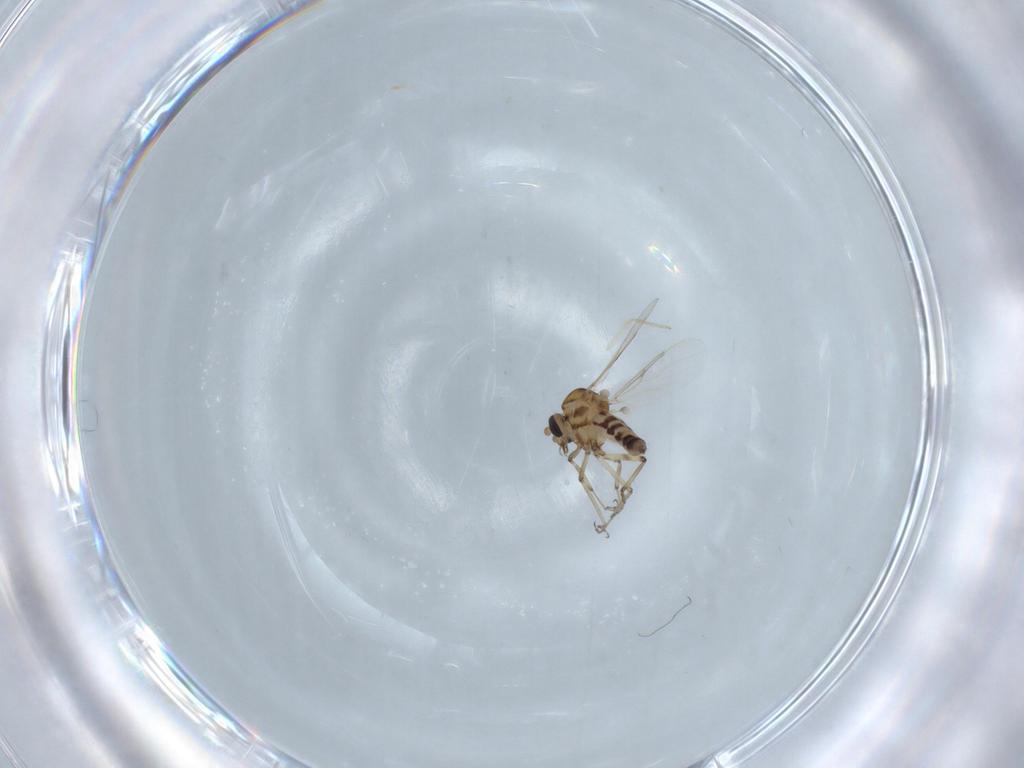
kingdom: Animalia
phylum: Arthropoda
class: Insecta
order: Diptera
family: Ceratopogonidae
